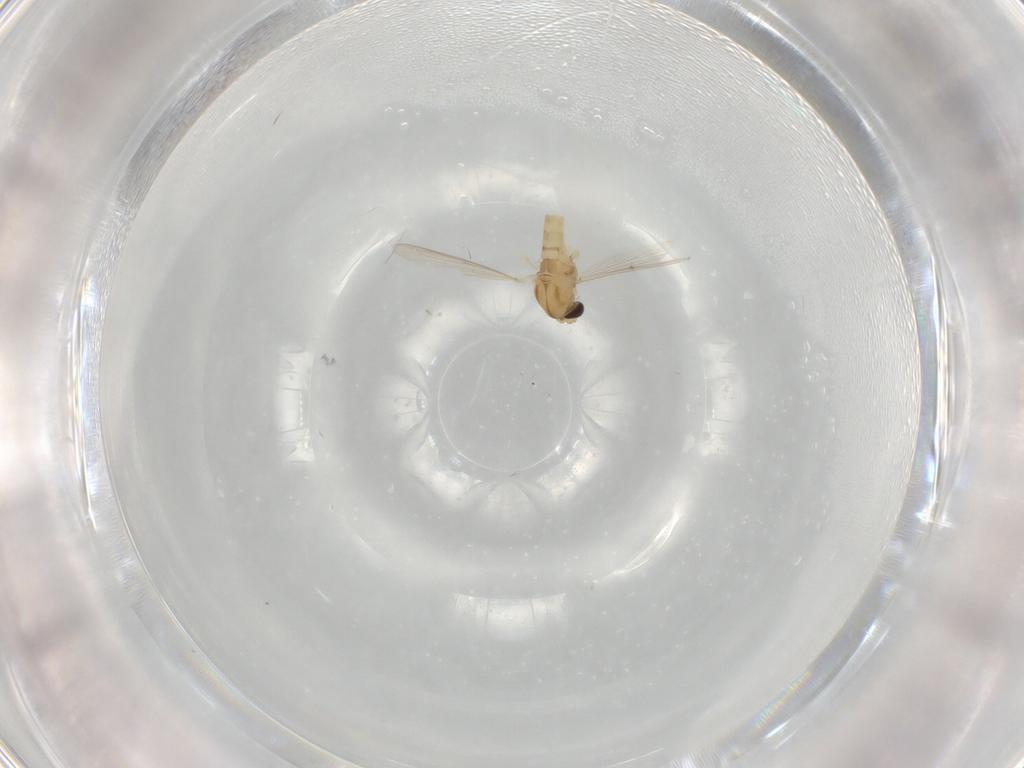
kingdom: Animalia
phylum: Arthropoda
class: Insecta
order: Diptera
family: Chironomidae
